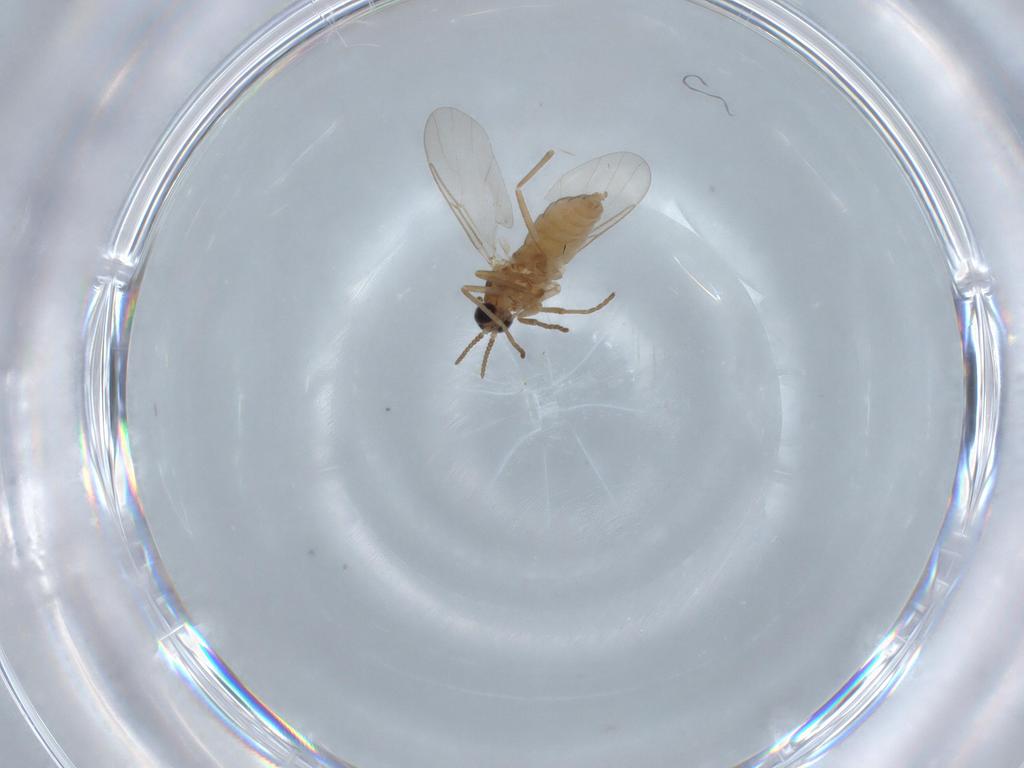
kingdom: Animalia
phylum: Arthropoda
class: Insecta
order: Diptera
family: Cecidomyiidae
